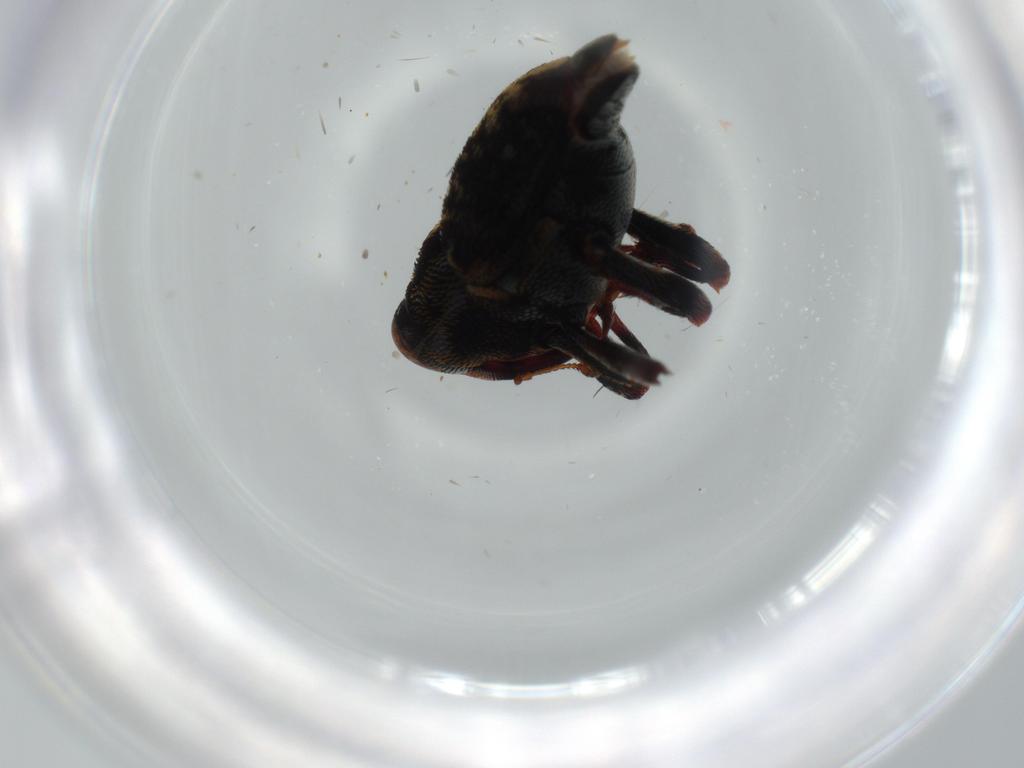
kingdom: Animalia
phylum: Arthropoda
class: Insecta
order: Coleoptera
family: Curculionidae
